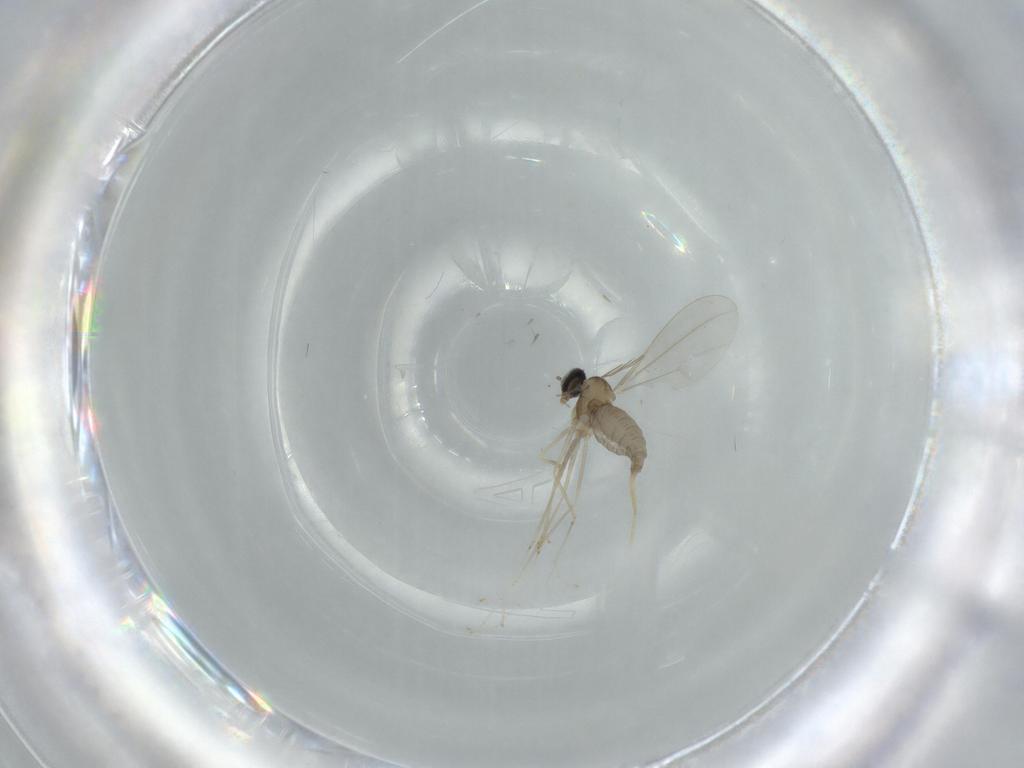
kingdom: Animalia
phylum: Arthropoda
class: Insecta
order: Diptera
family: Cecidomyiidae
